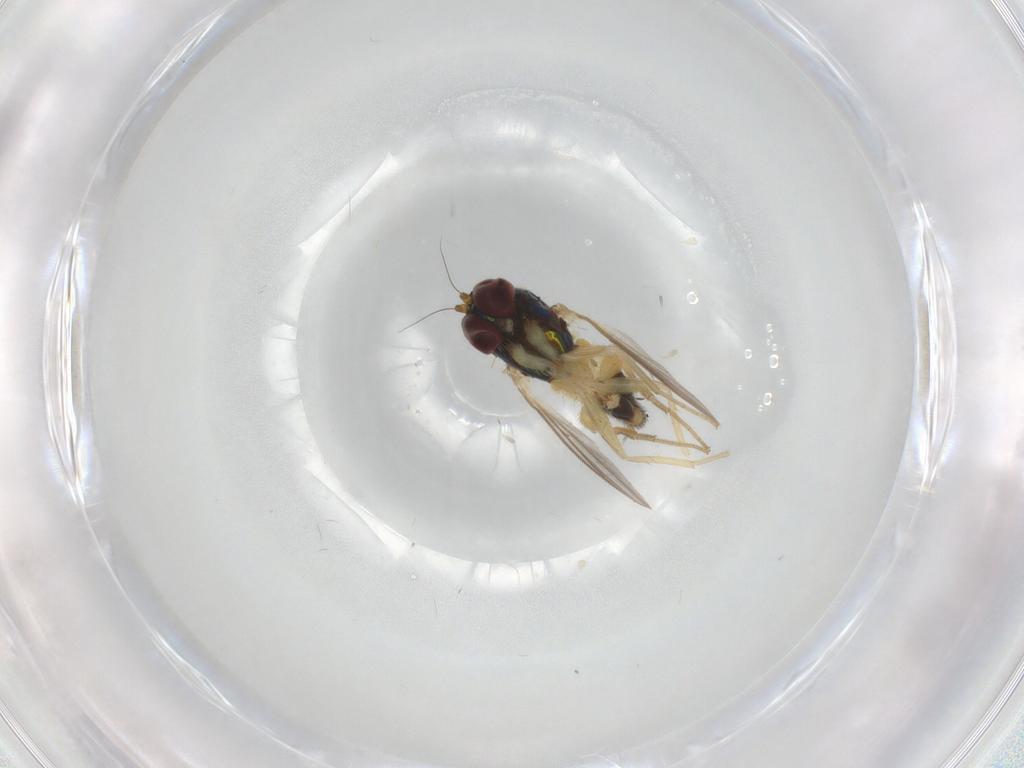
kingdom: Animalia
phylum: Arthropoda
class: Insecta
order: Diptera
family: Dolichopodidae
